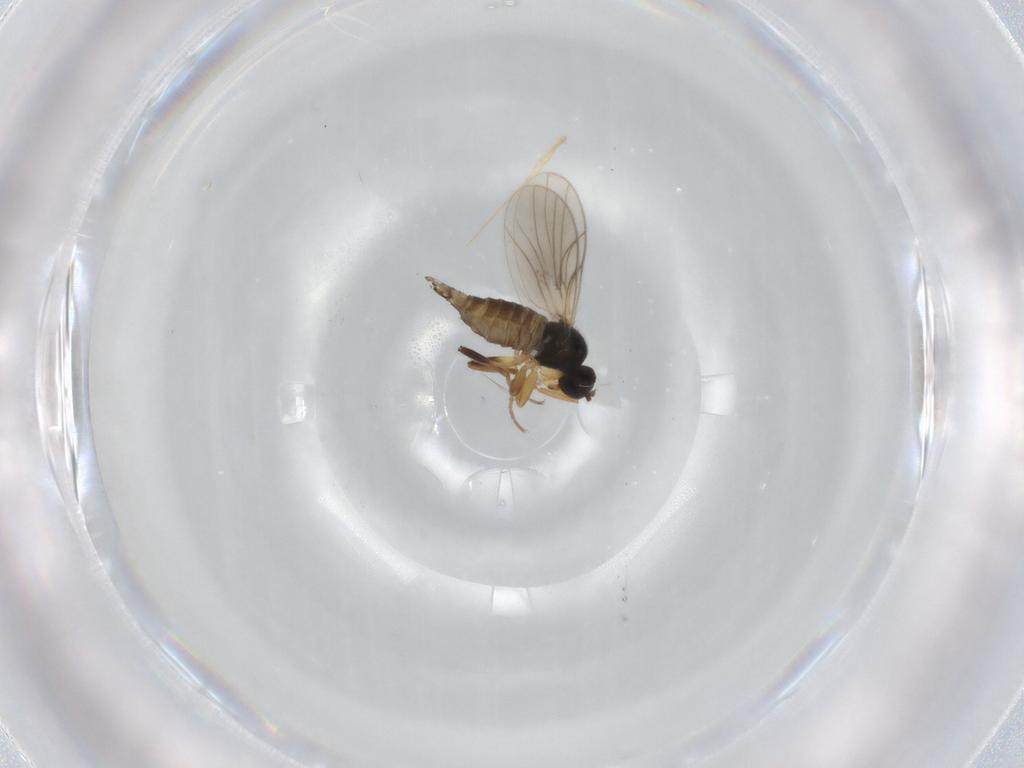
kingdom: Animalia
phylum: Arthropoda
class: Insecta
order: Diptera
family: Hybotidae
